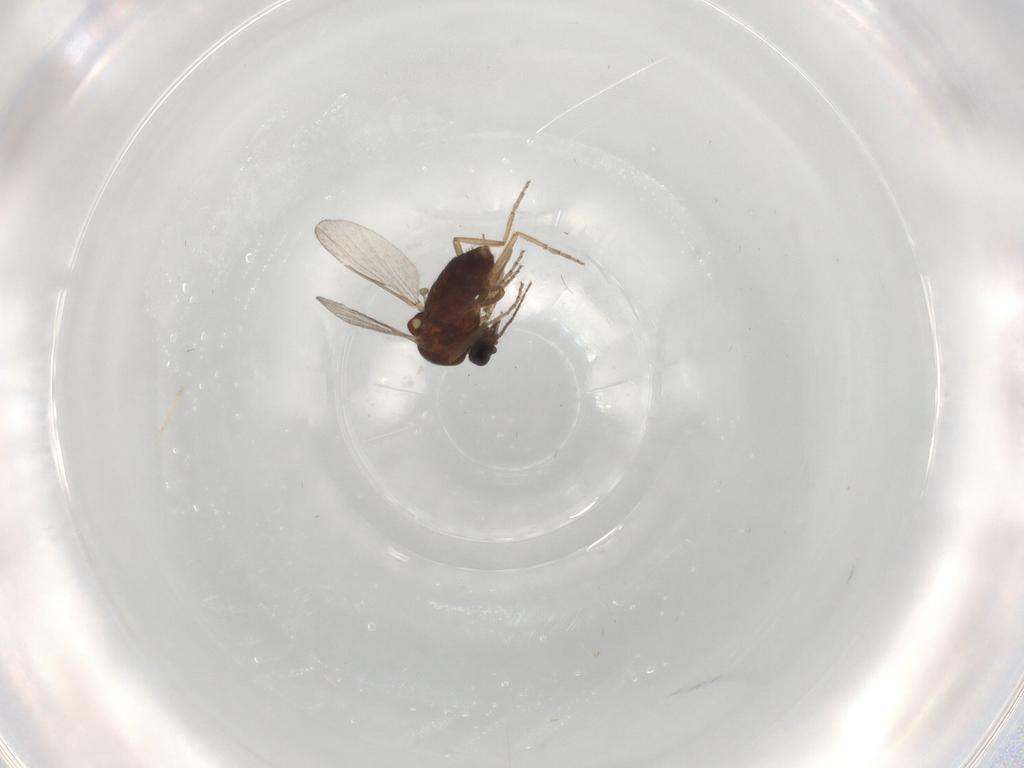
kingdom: Animalia
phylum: Arthropoda
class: Insecta
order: Diptera
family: Ceratopogonidae
